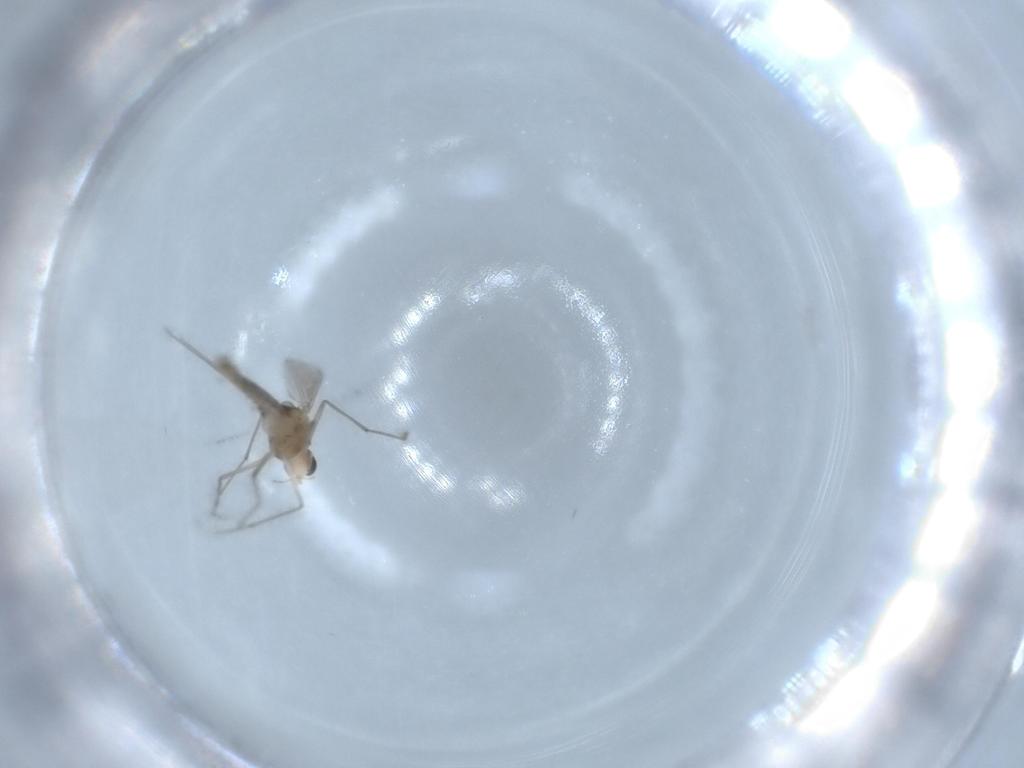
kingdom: Animalia
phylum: Arthropoda
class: Insecta
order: Diptera
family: Chironomidae
